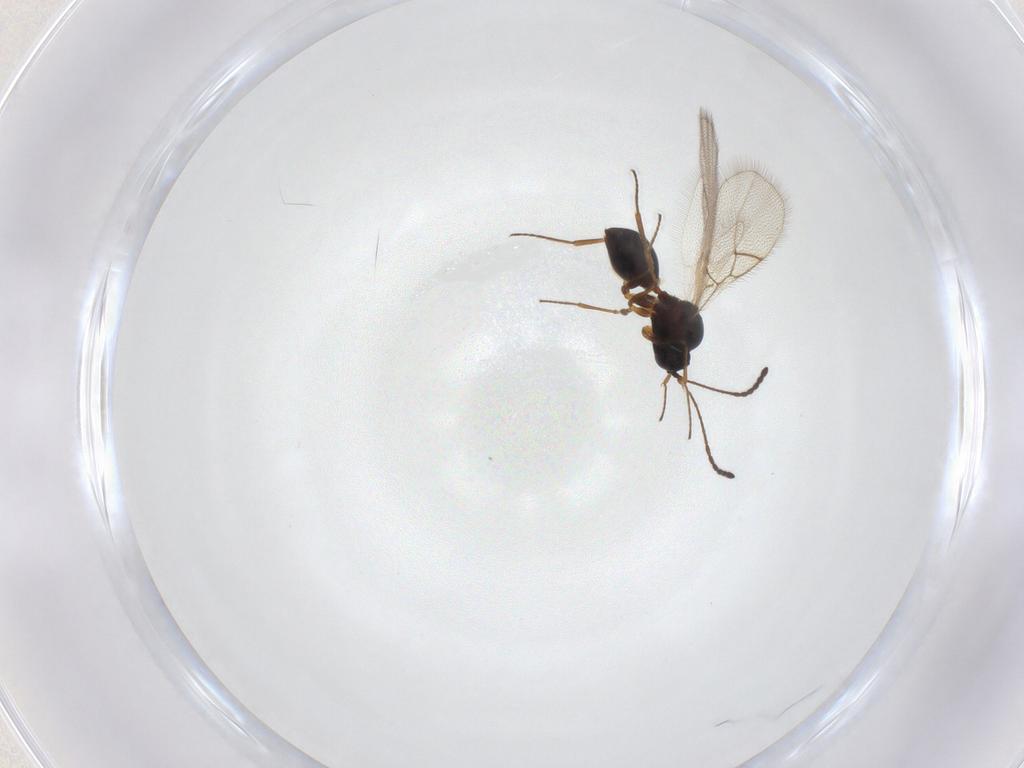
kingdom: Animalia
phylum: Arthropoda
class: Insecta
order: Hymenoptera
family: Figitidae
